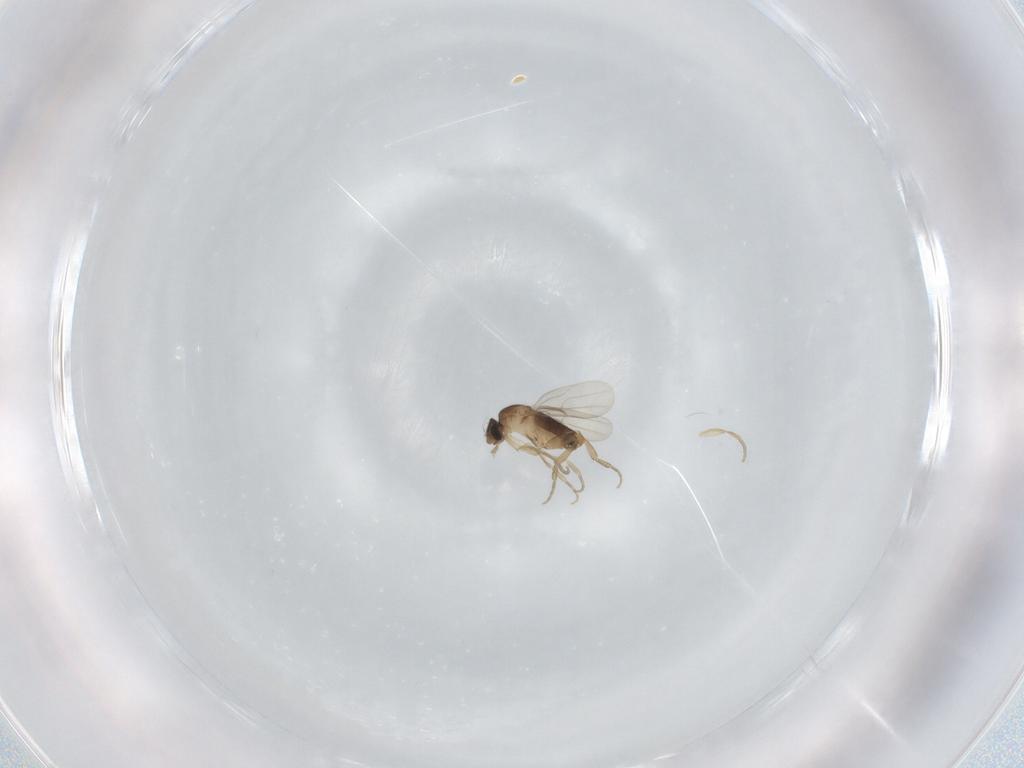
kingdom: Animalia
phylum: Arthropoda
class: Insecta
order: Diptera
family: Phoridae
